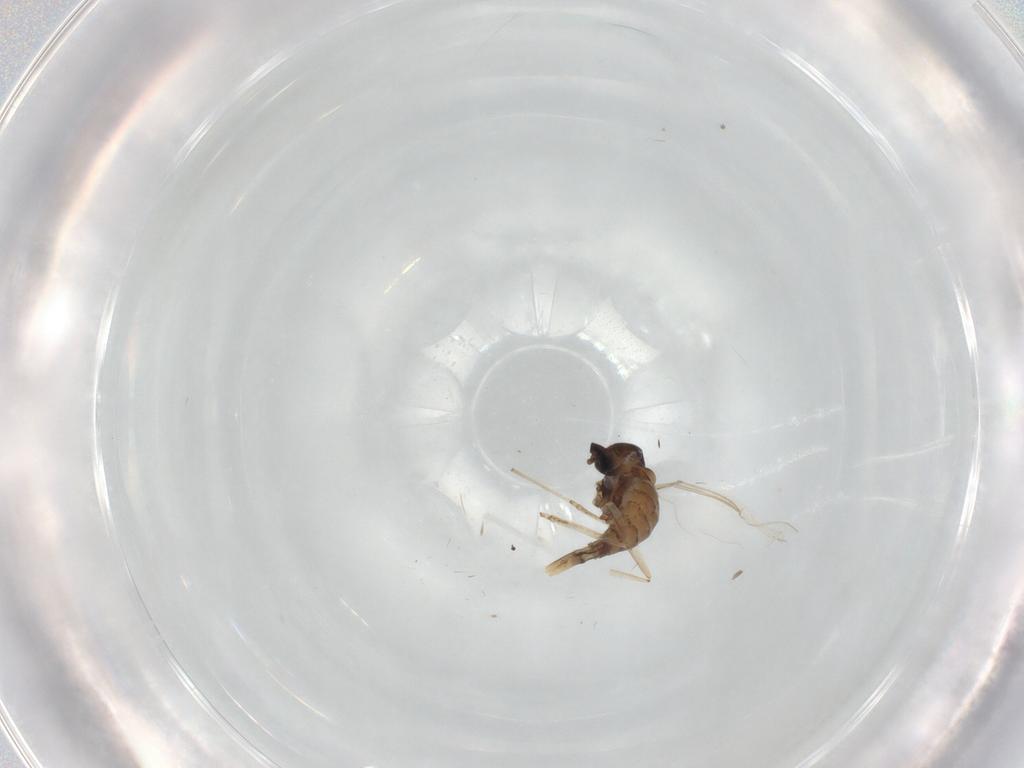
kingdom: Animalia
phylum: Arthropoda
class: Insecta
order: Diptera
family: Cecidomyiidae
